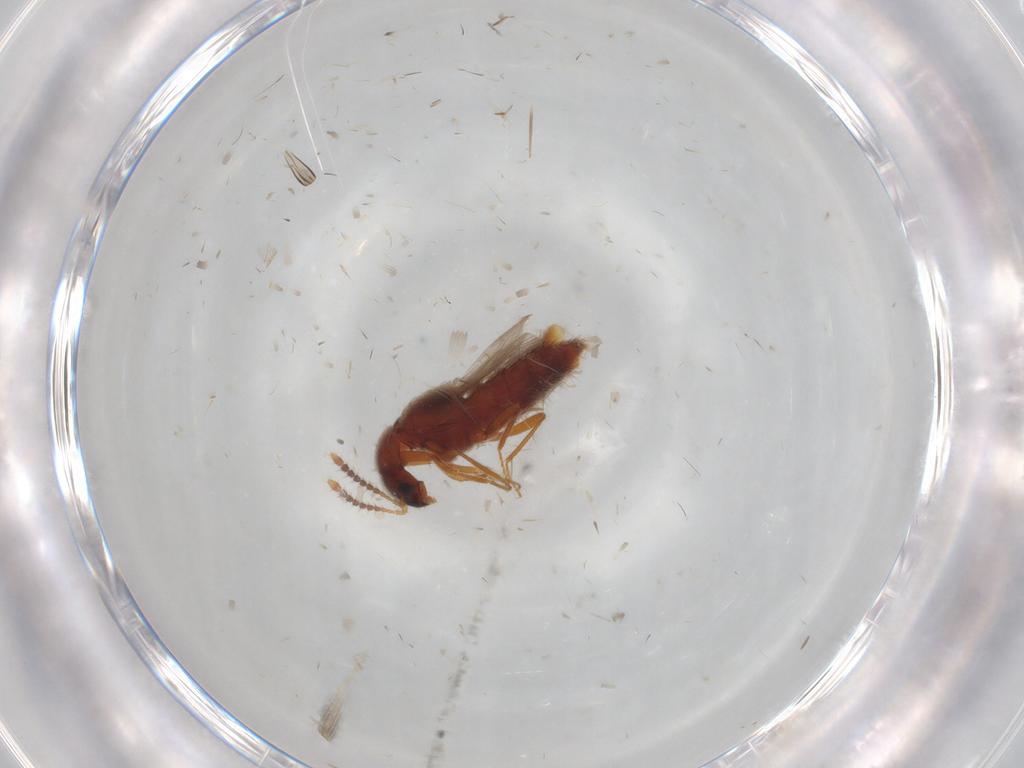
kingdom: Animalia
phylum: Arthropoda
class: Insecta
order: Coleoptera
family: Staphylinidae
